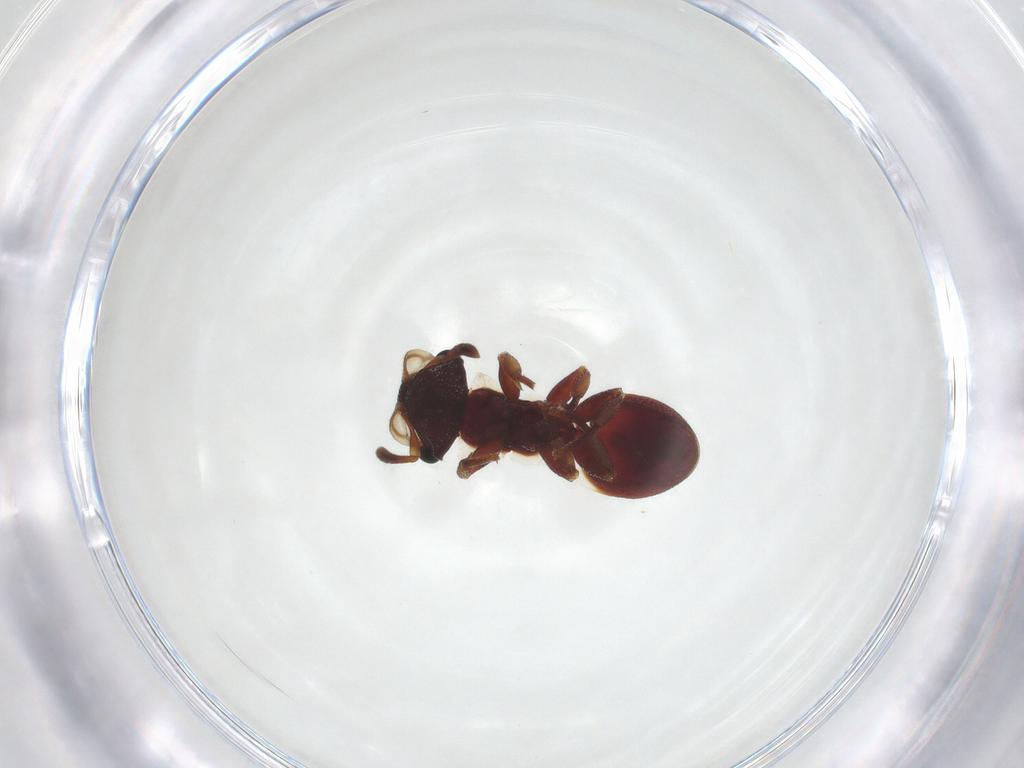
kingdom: Animalia
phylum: Arthropoda
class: Insecta
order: Hymenoptera
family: Formicidae
